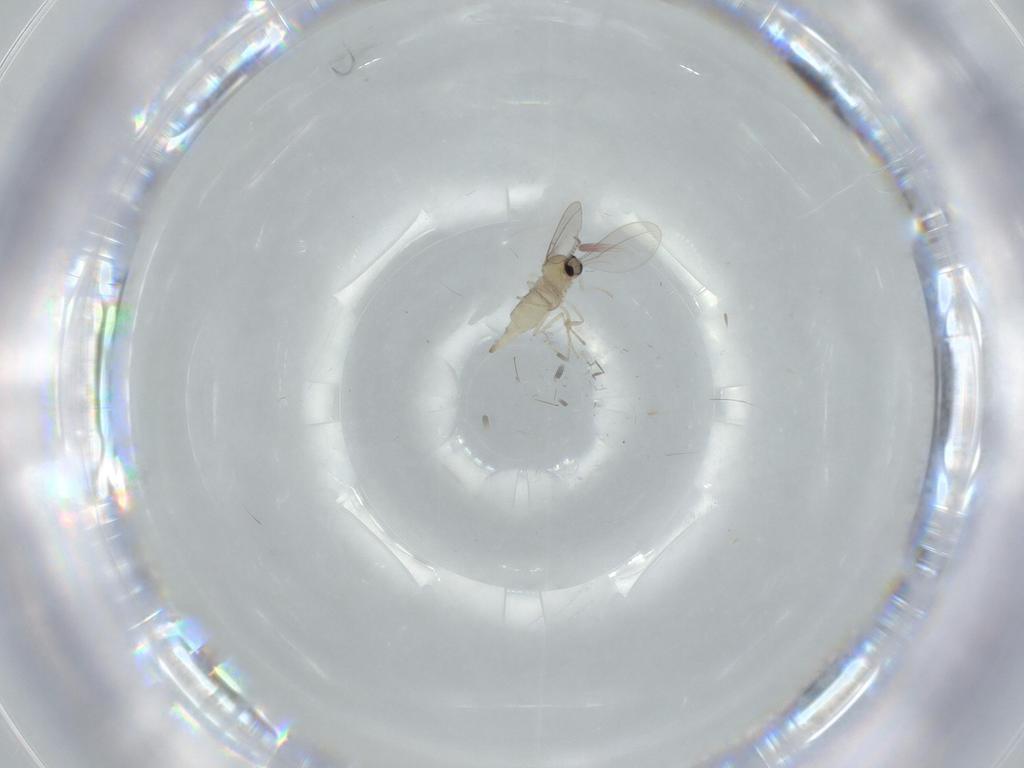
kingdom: Animalia
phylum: Arthropoda
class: Insecta
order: Diptera
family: Cecidomyiidae
